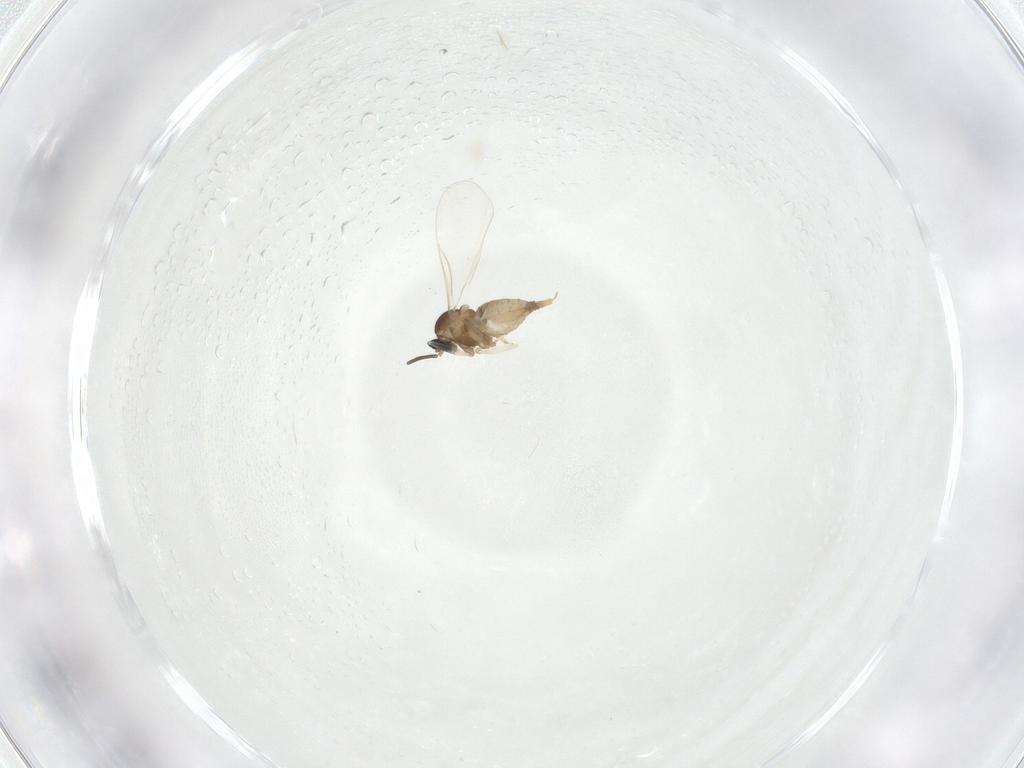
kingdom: Animalia
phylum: Arthropoda
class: Insecta
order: Diptera
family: Cecidomyiidae
